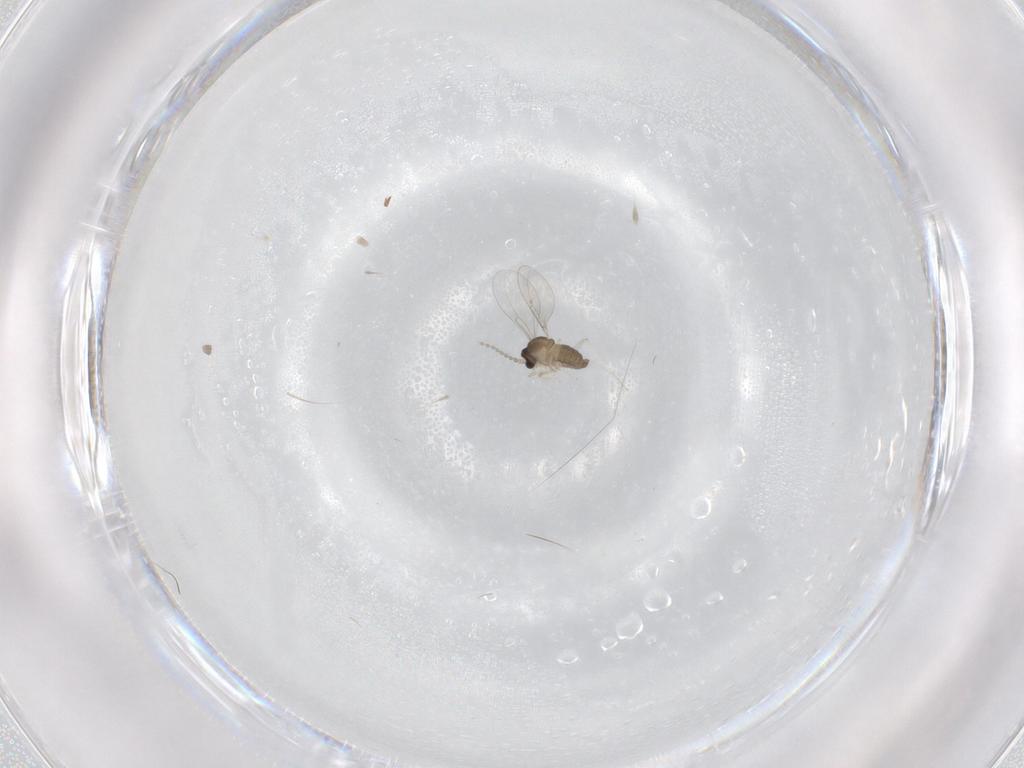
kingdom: Animalia
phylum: Arthropoda
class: Insecta
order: Diptera
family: Cecidomyiidae
